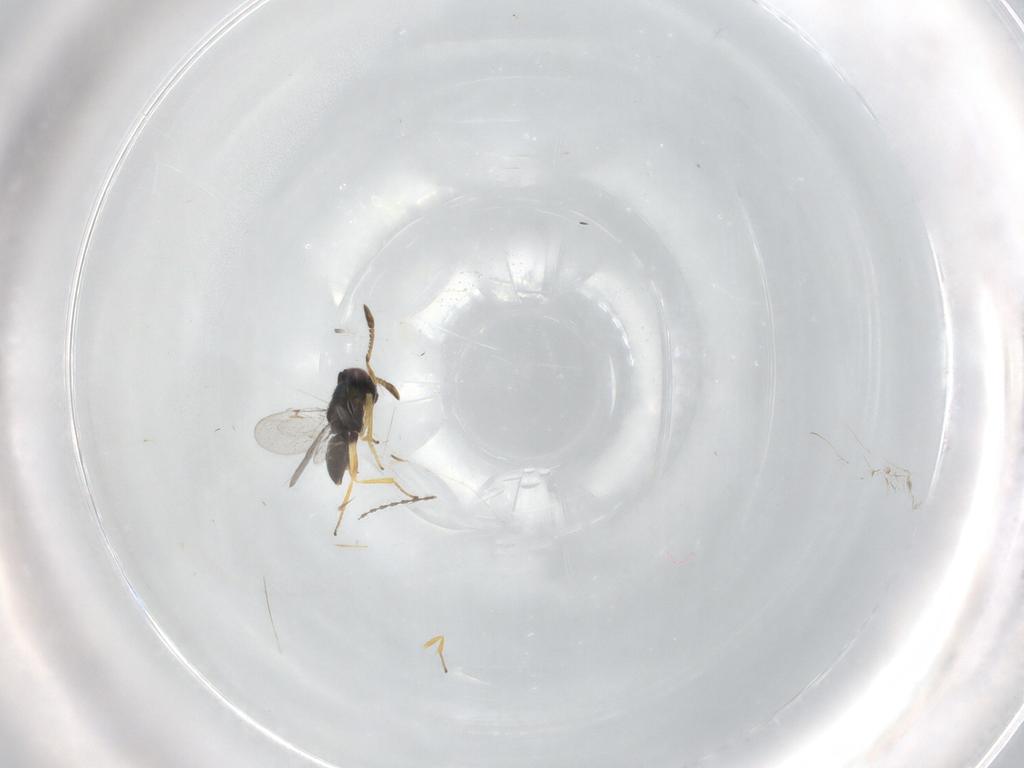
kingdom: Animalia
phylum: Arthropoda
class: Insecta
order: Hymenoptera
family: Encyrtidae
